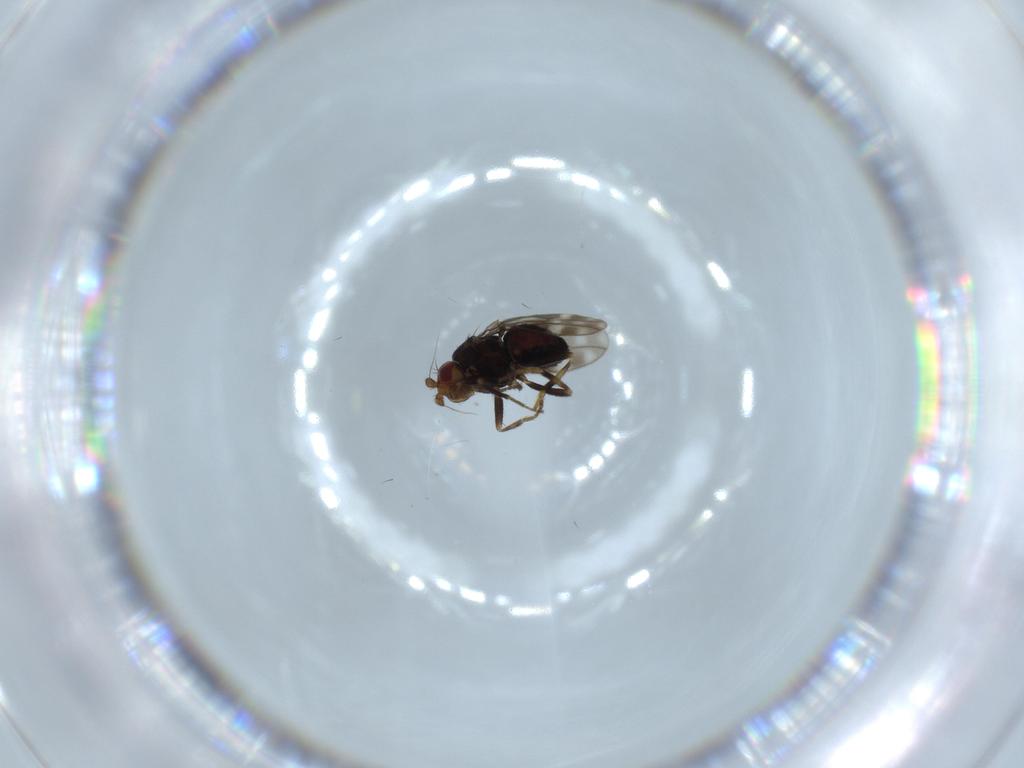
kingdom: Animalia
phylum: Arthropoda
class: Insecta
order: Diptera
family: Sphaeroceridae
